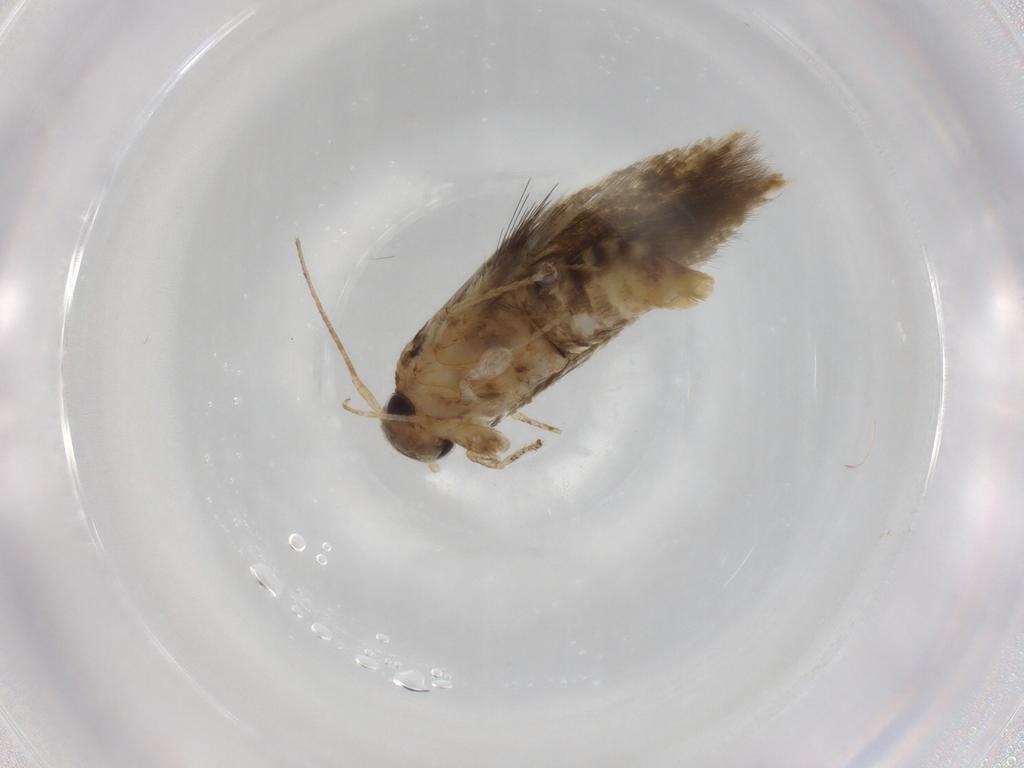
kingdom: Animalia
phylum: Arthropoda
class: Insecta
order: Lepidoptera
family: Oecophoridae
